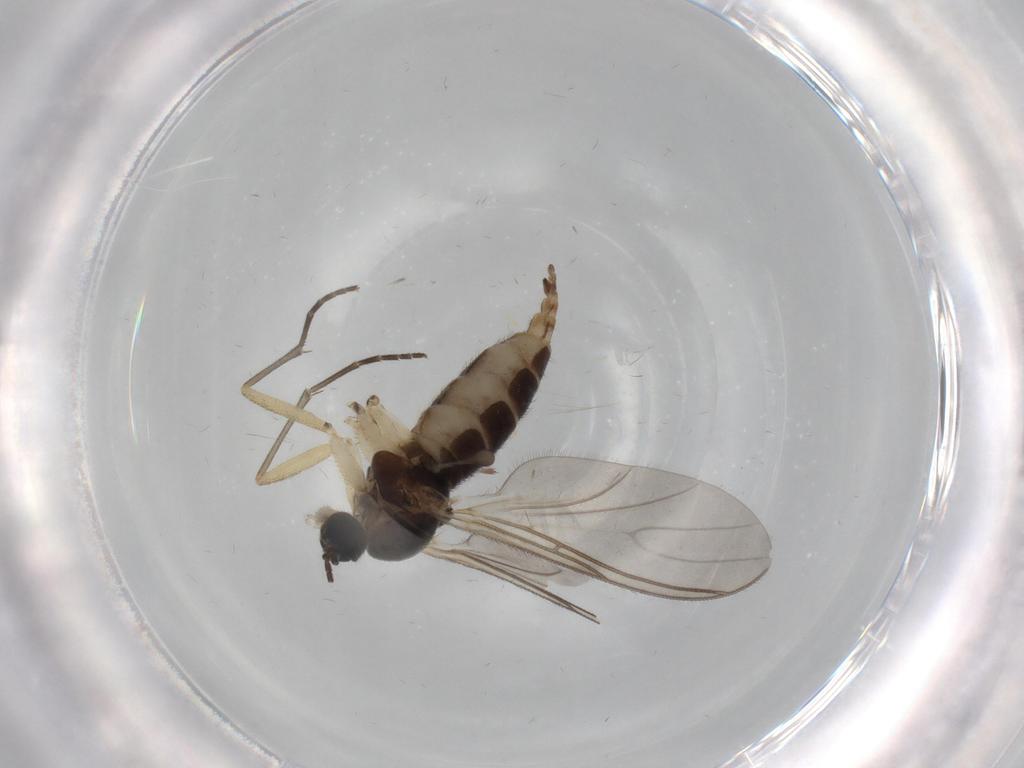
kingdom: Animalia
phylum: Arthropoda
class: Insecta
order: Diptera
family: Sciaridae
